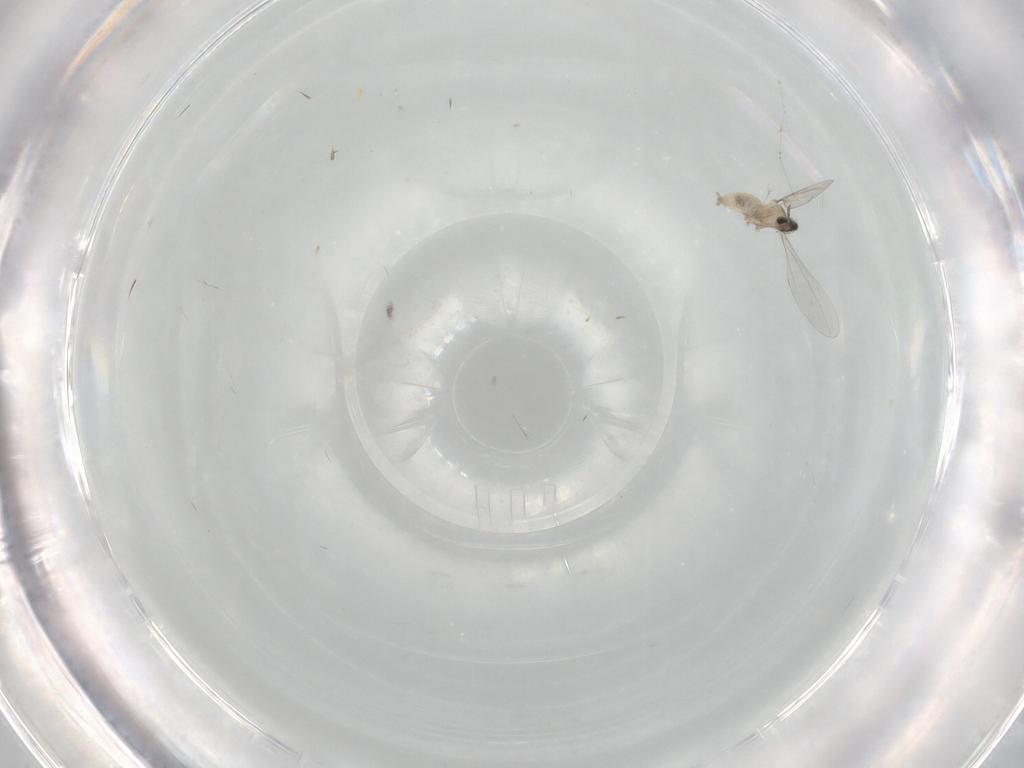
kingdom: Animalia
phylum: Arthropoda
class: Insecta
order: Diptera
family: Cecidomyiidae
